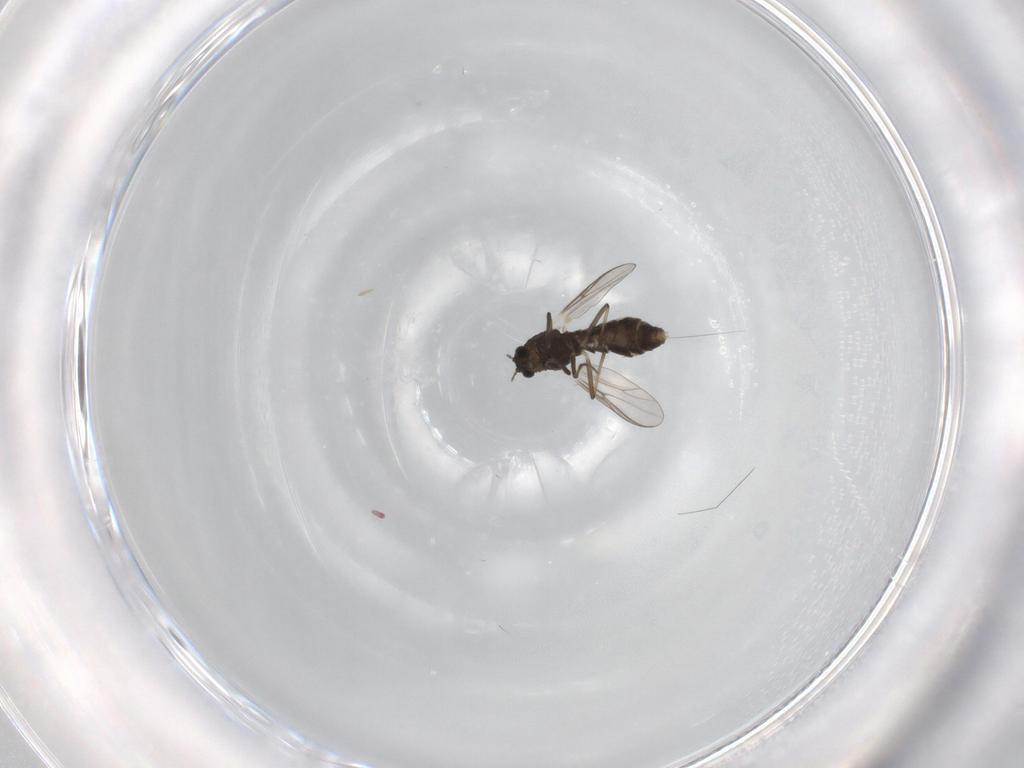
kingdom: Animalia
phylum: Arthropoda
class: Insecta
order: Diptera
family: Chironomidae
